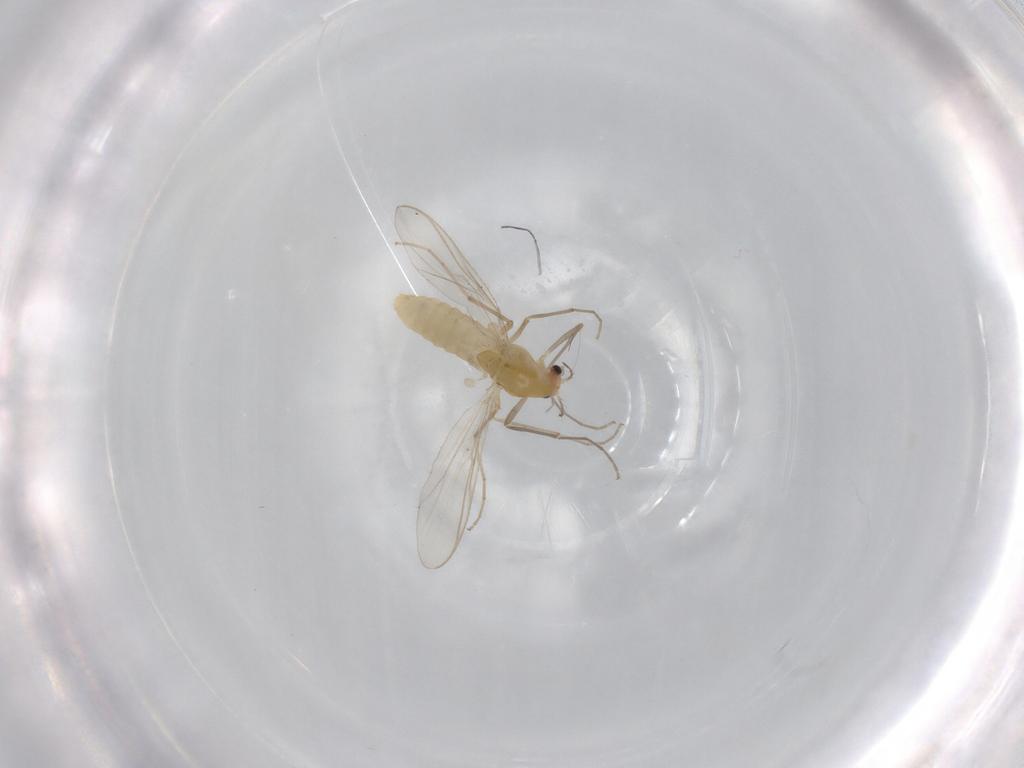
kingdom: Animalia
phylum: Arthropoda
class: Insecta
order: Diptera
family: Chironomidae
